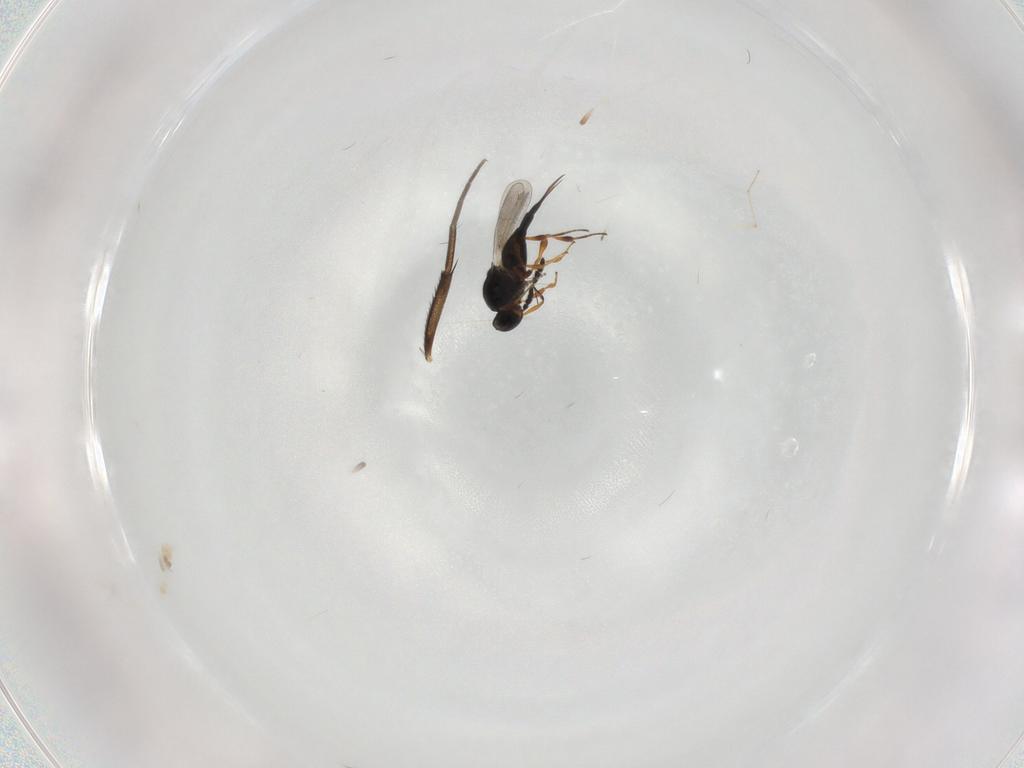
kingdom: Animalia
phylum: Arthropoda
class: Insecta
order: Hymenoptera
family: Platygastridae
